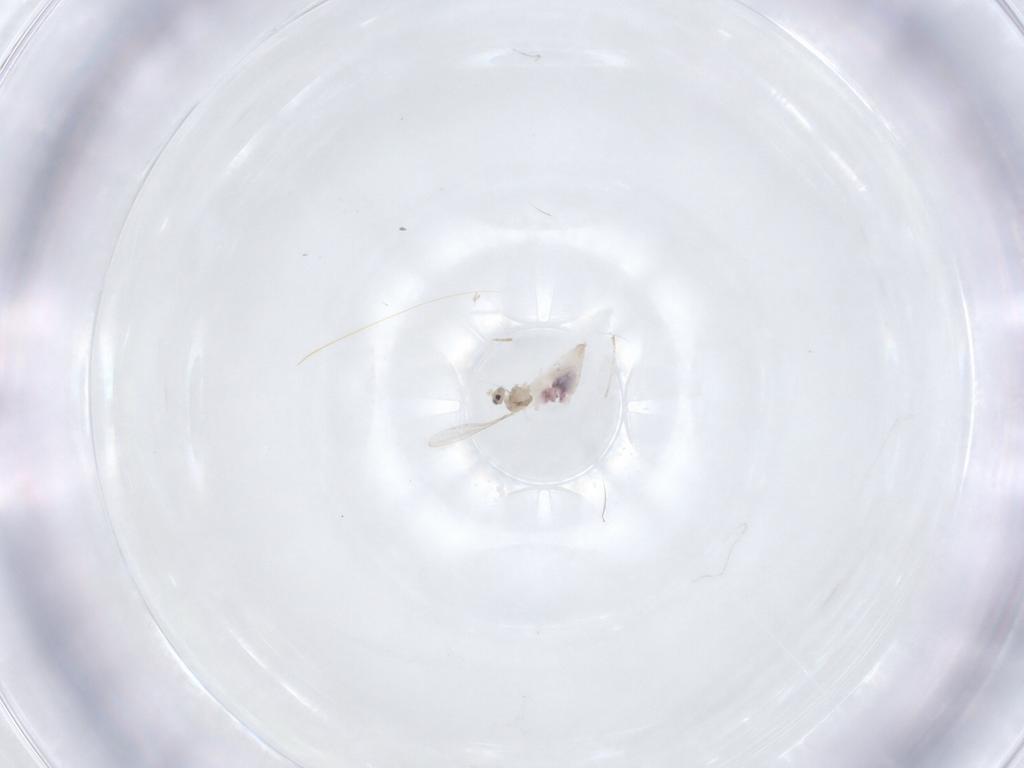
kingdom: Animalia
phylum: Arthropoda
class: Insecta
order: Diptera
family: Cecidomyiidae
